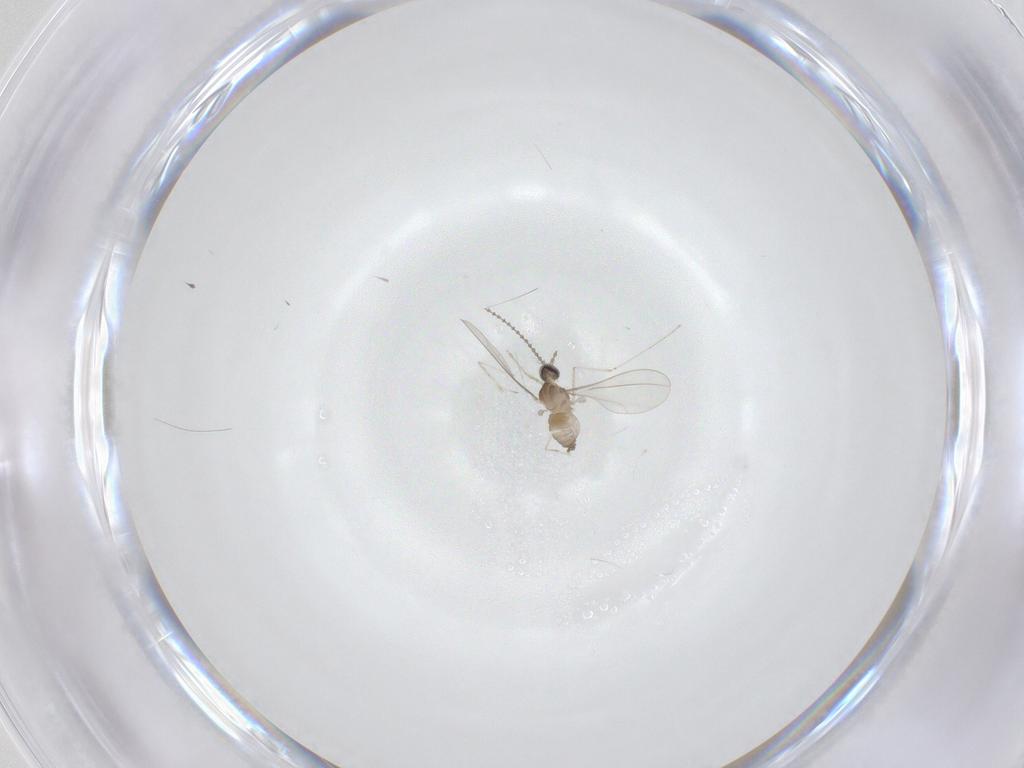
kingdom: Animalia
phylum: Arthropoda
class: Insecta
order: Diptera
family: Cecidomyiidae
